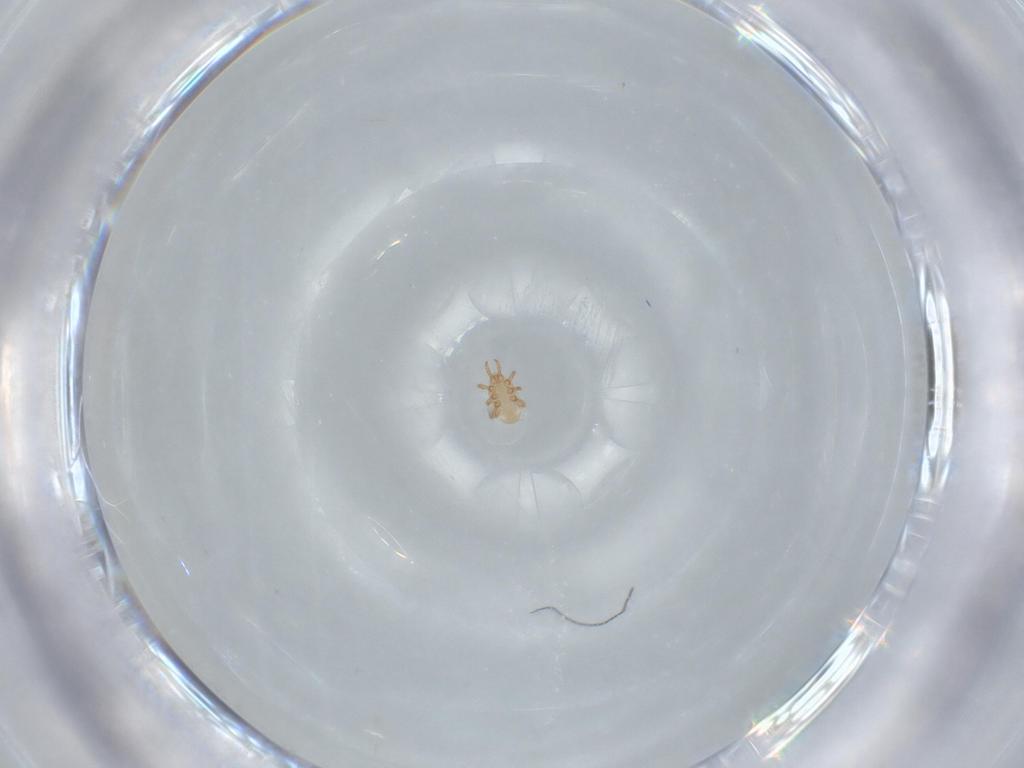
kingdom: Animalia
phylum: Arthropoda
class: Arachnida
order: Mesostigmata
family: Dinychidae
